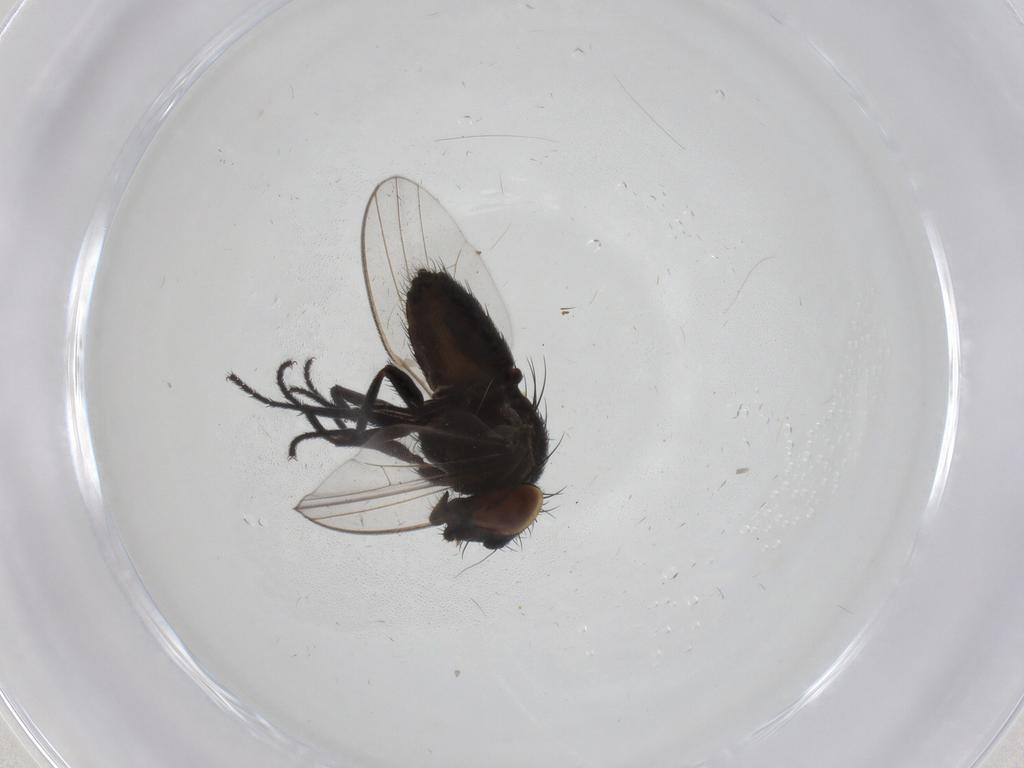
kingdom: Animalia
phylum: Arthropoda
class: Insecta
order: Diptera
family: Milichiidae
